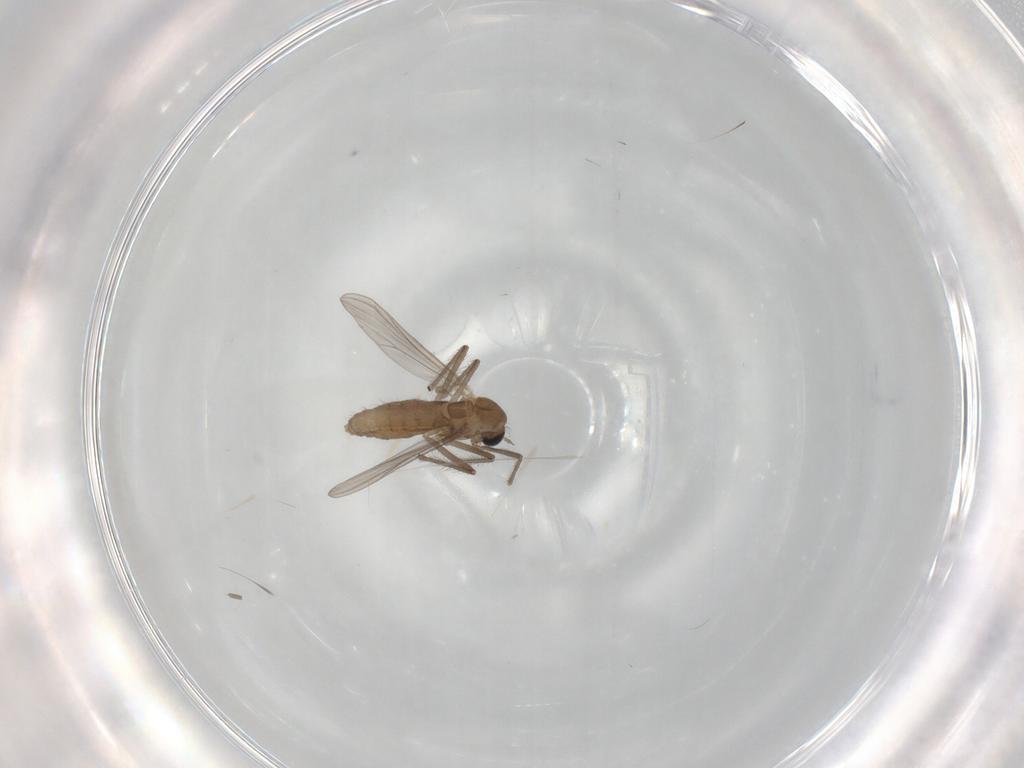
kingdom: Animalia
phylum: Arthropoda
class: Insecta
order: Diptera
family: Cecidomyiidae
